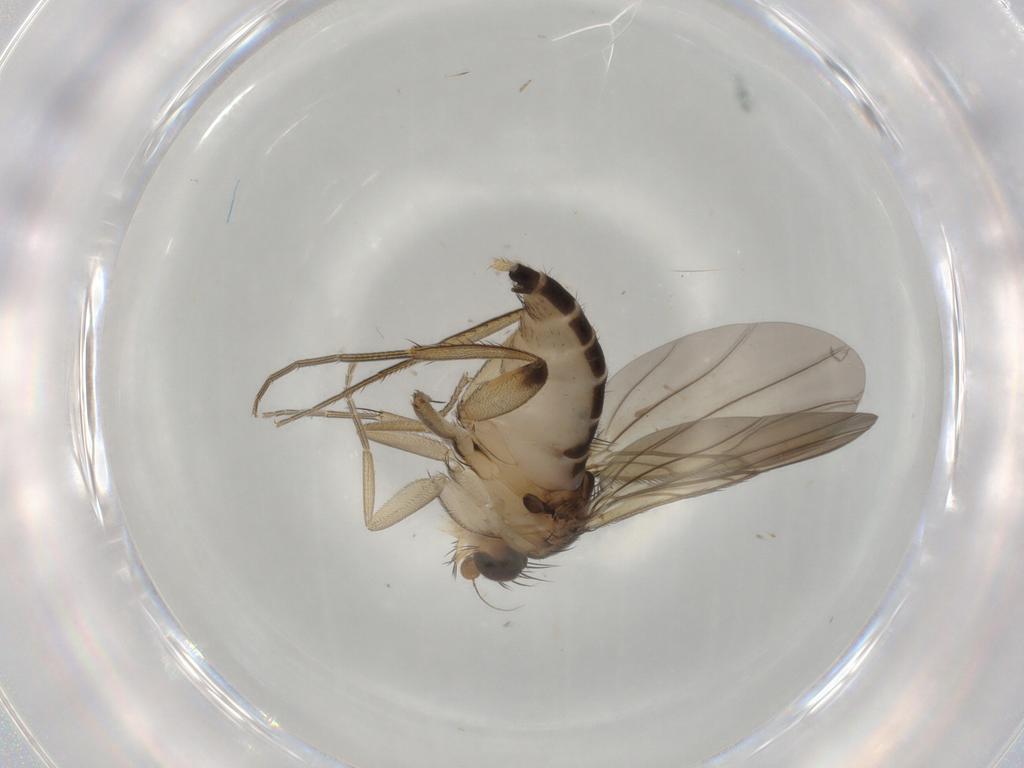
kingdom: Animalia
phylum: Arthropoda
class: Insecta
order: Diptera
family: Phoridae
